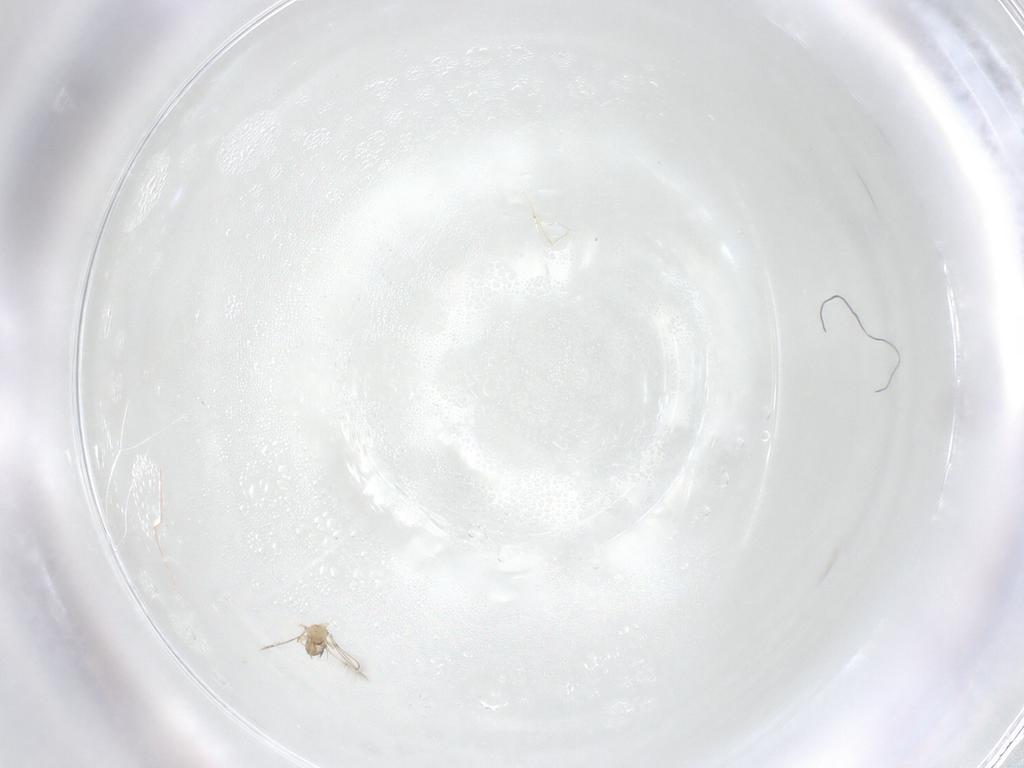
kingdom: Animalia
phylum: Arthropoda
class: Insecta
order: Hymenoptera
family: Mymaridae
